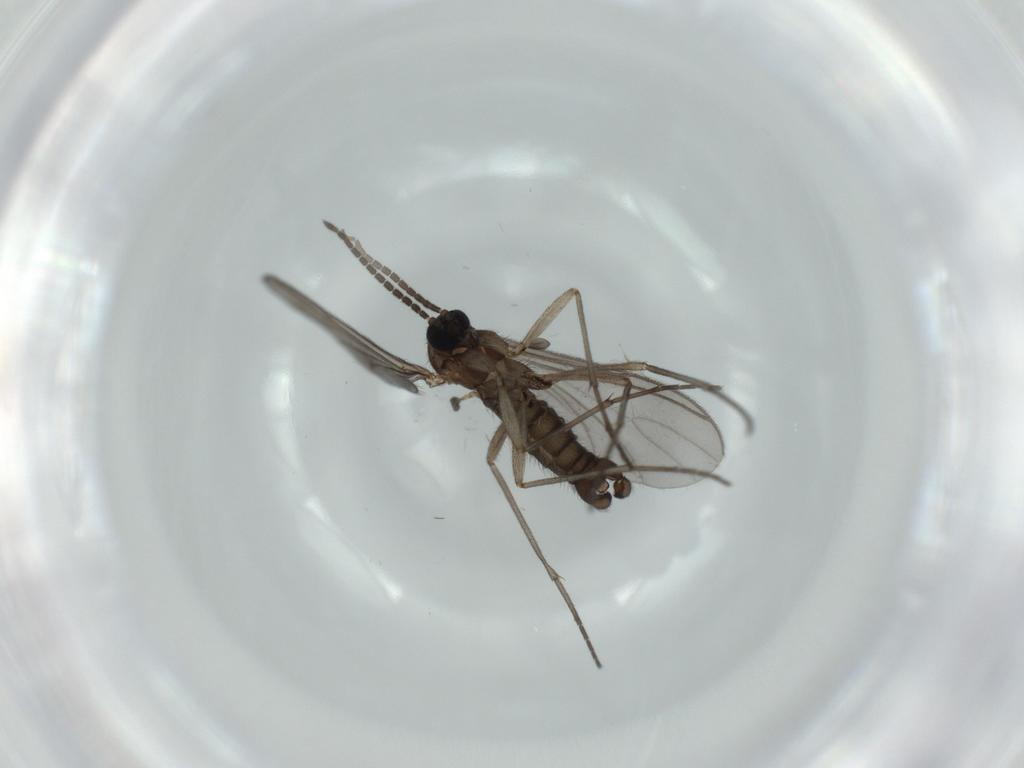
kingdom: Animalia
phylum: Arthropoda
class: Insecta
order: Diptera
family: Sciaridae
